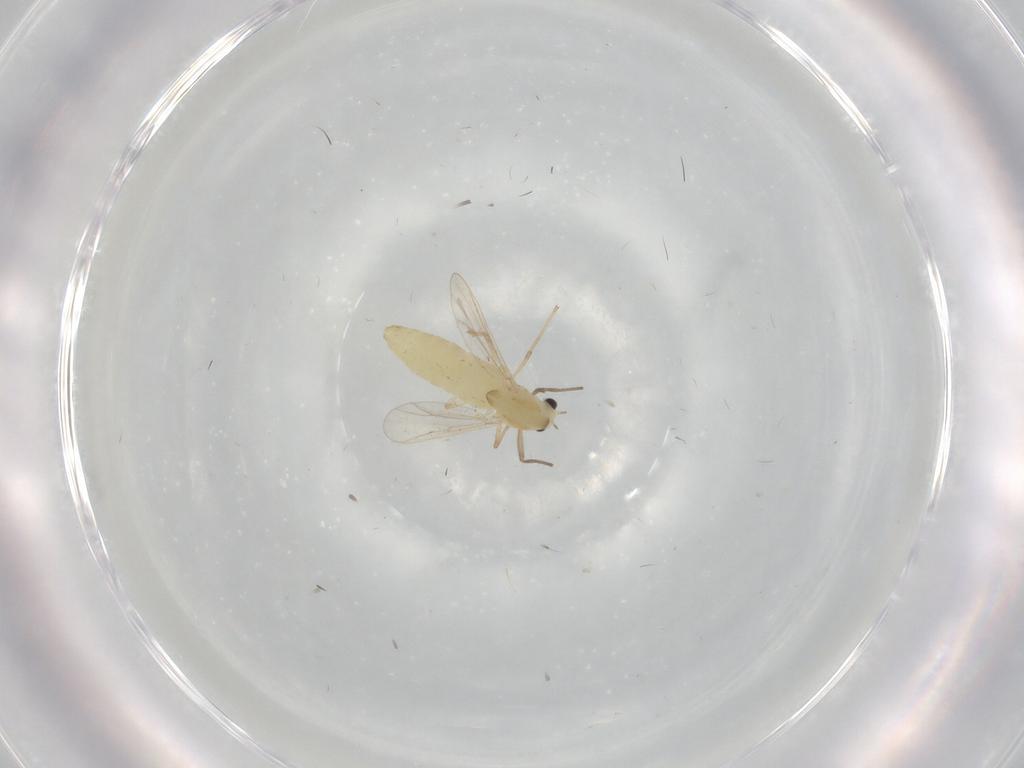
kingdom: Animalia
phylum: Arthropoda
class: Insecta
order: Diptera
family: Chironomidae
